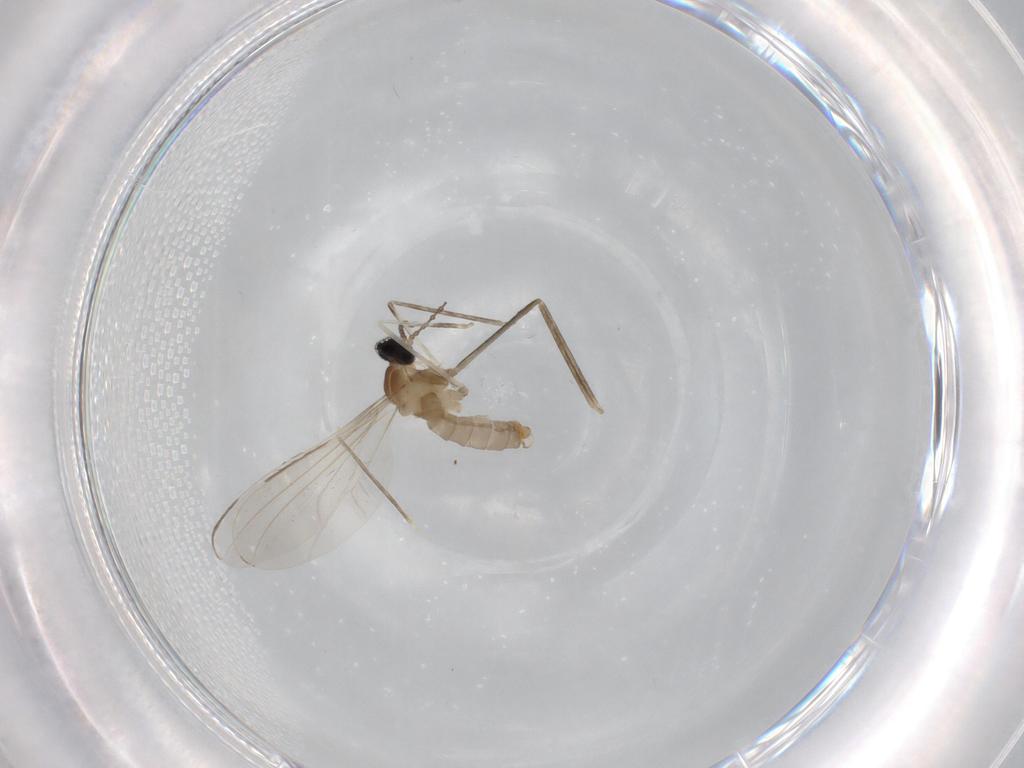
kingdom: Animalia
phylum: Arthropoda
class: Insecta
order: Diptera
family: Cecidomyiidae
